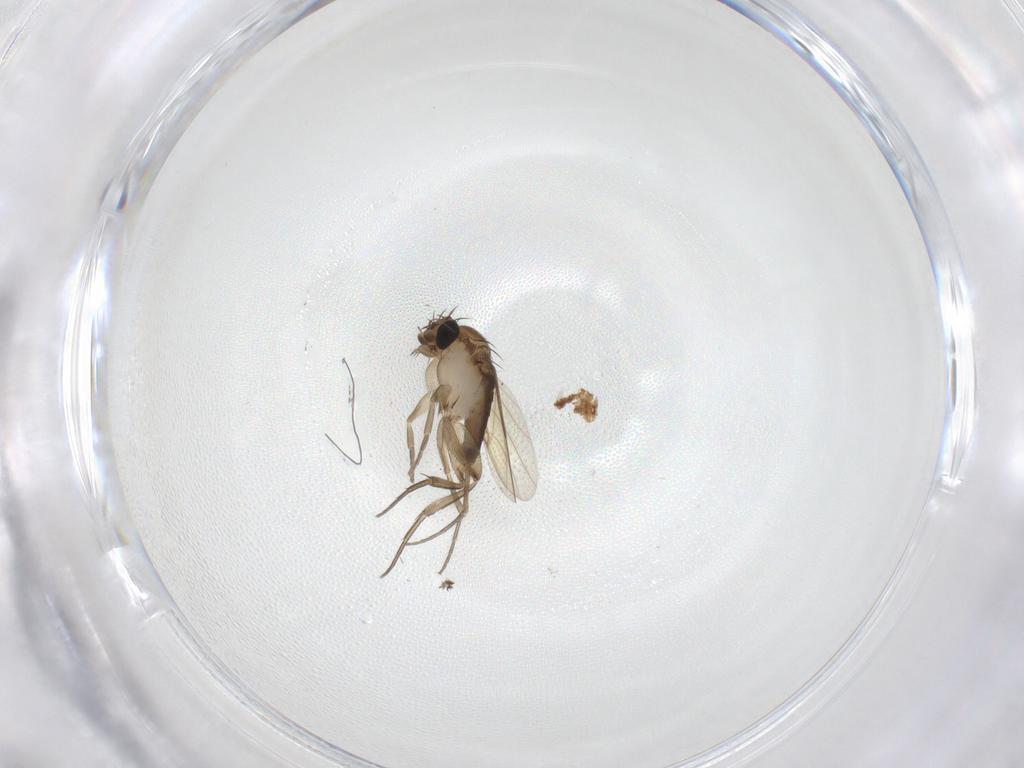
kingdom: Animalia
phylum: Arthropoda
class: Insecta
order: Diptera
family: Phoridae
